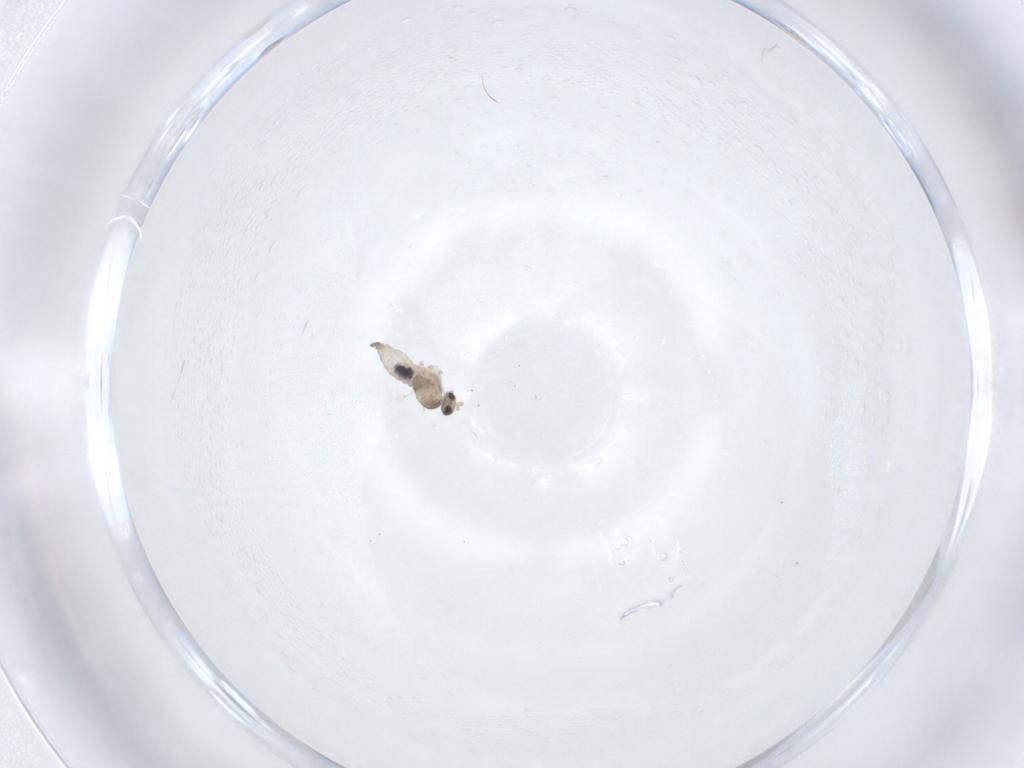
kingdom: Animalia
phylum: Arthropoda
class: Insecta
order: Diptera
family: Cecidomyiidae
